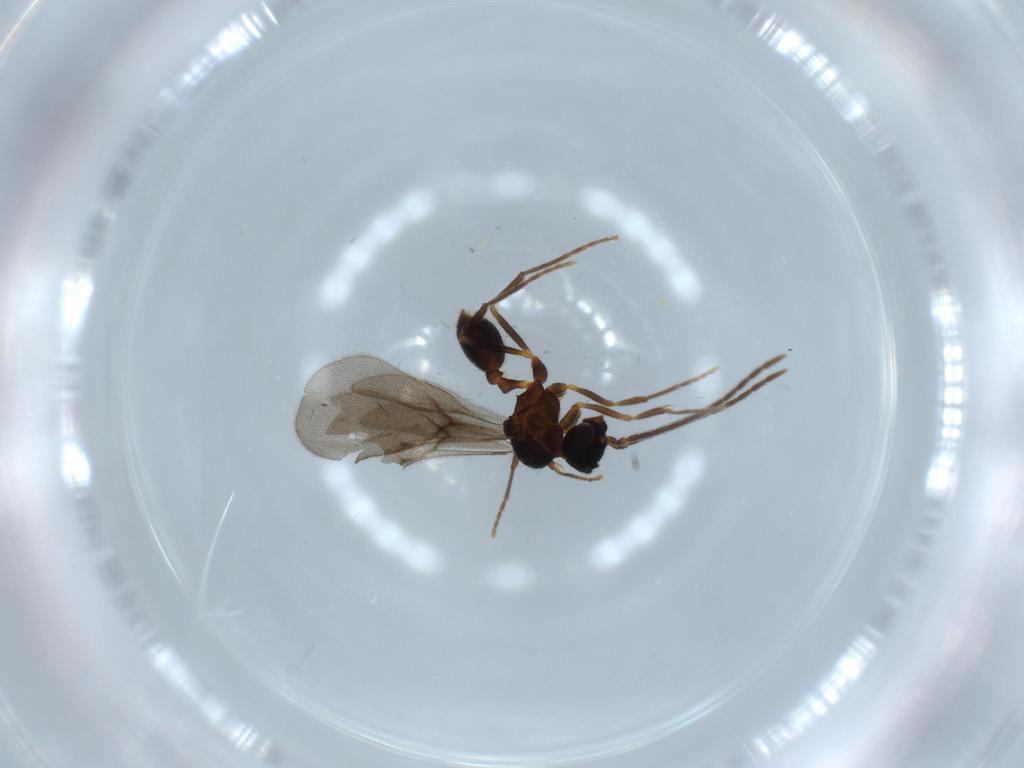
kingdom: Animalia
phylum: Arthropoda
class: Insecta
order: Hymenoptera
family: Formicidae
